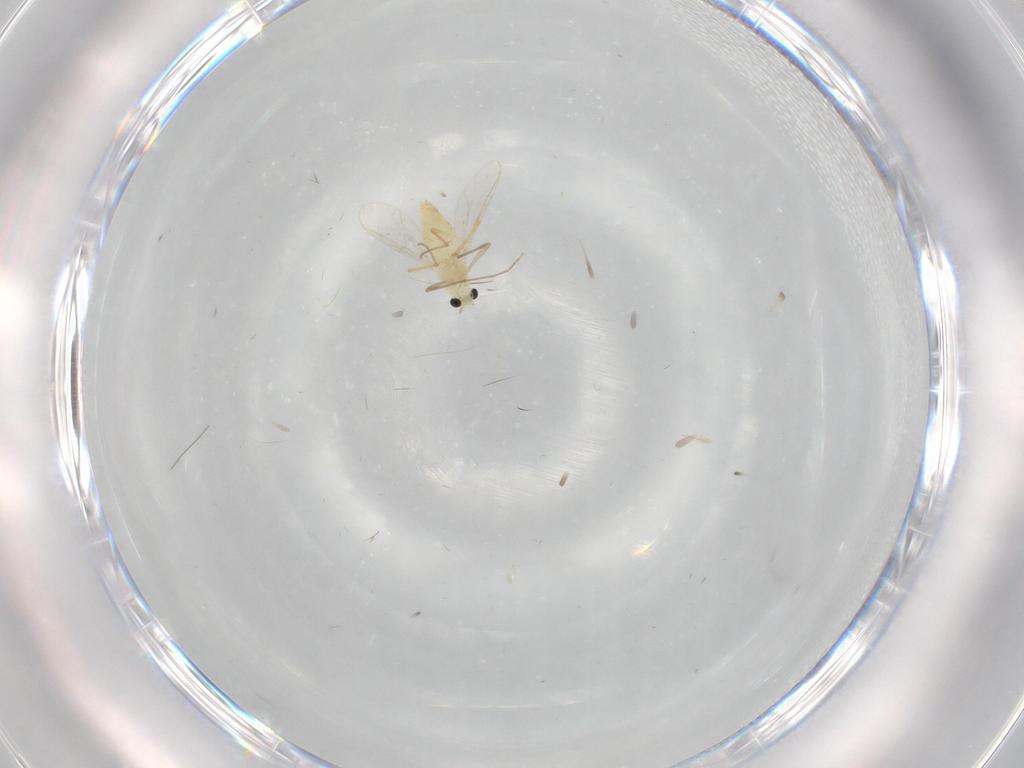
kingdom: Animalia
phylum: Arthropoda
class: Insecta
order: Diptera
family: Chironomidae
